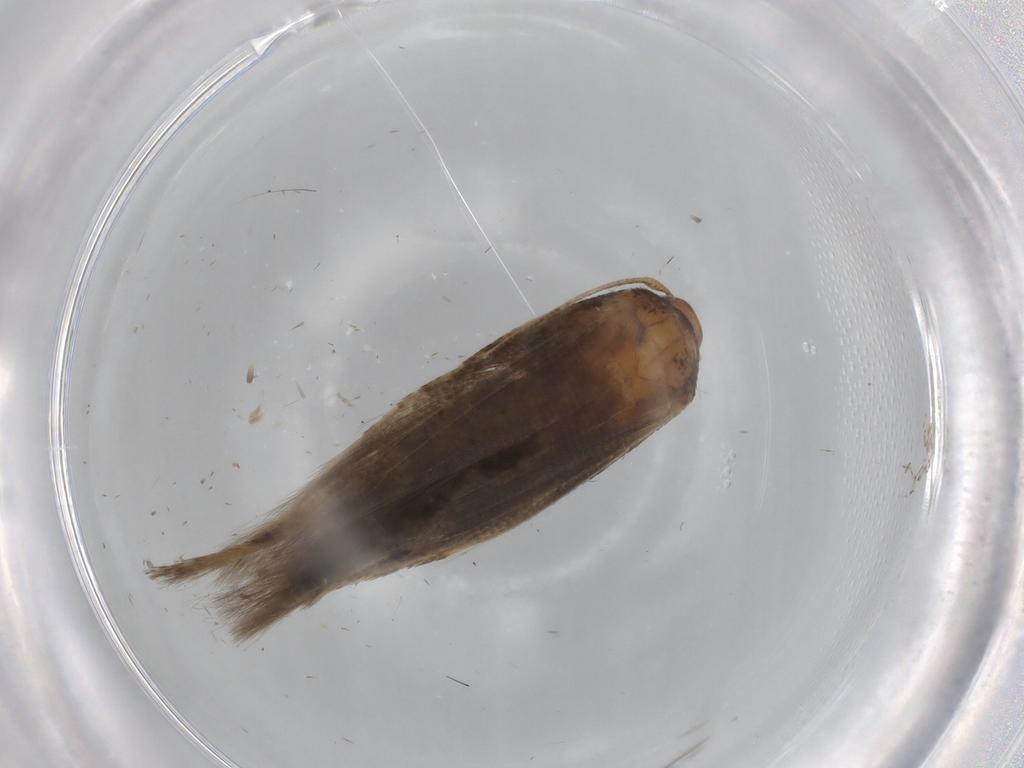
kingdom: Animalia
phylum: Arthropoda
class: Insecta
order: Lepidoptera
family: Cosmopterigidae
